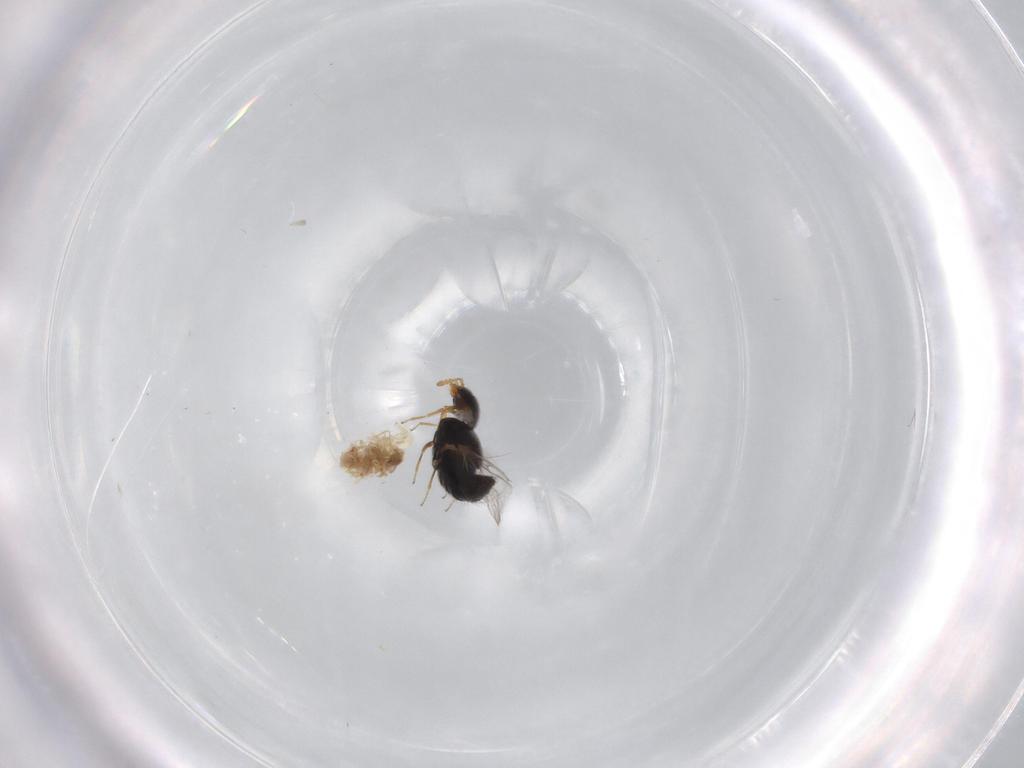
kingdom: Animalia
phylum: Arthropoda
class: Insecta
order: Coleoptera
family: Staphylinidae
